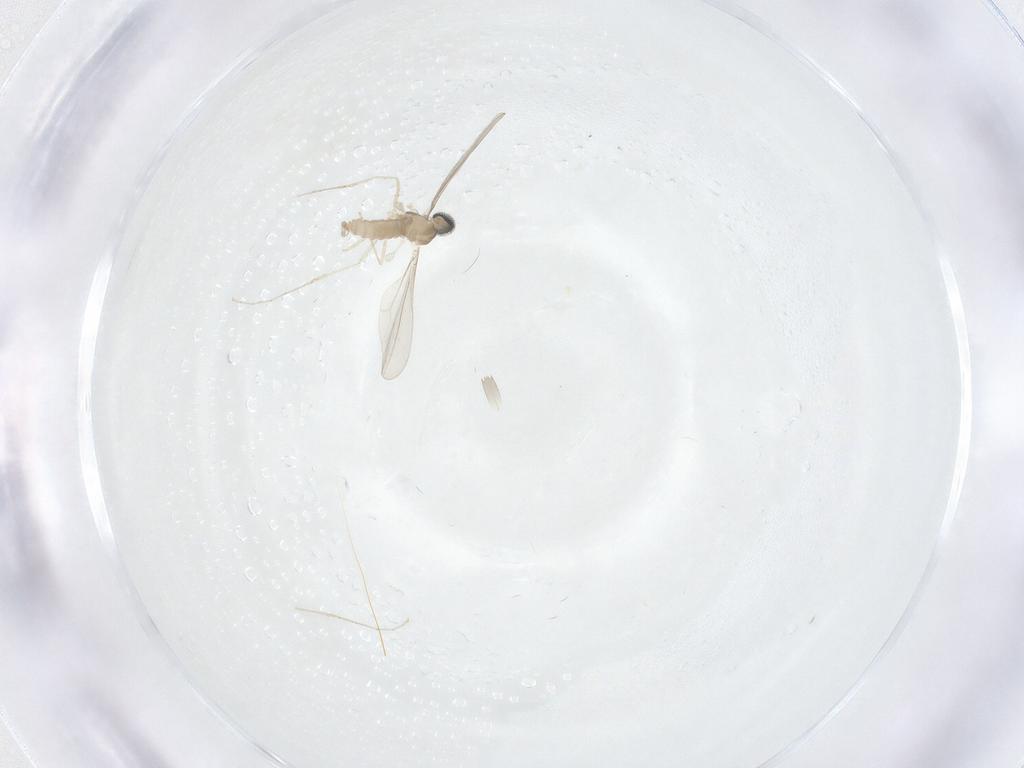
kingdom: Animalia
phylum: Arthropoda
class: Insecta
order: Diptera
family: Cecidomyiidae
